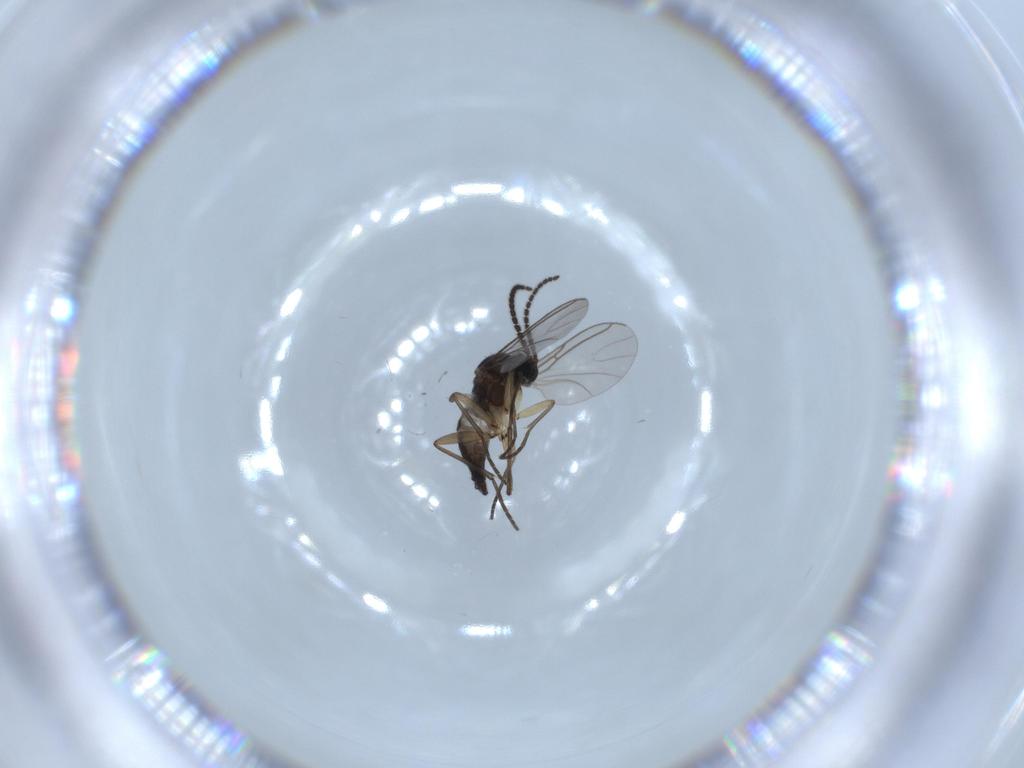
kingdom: Animalia
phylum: Arthropoda
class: Insecta
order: Diptera
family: Sciaridae
